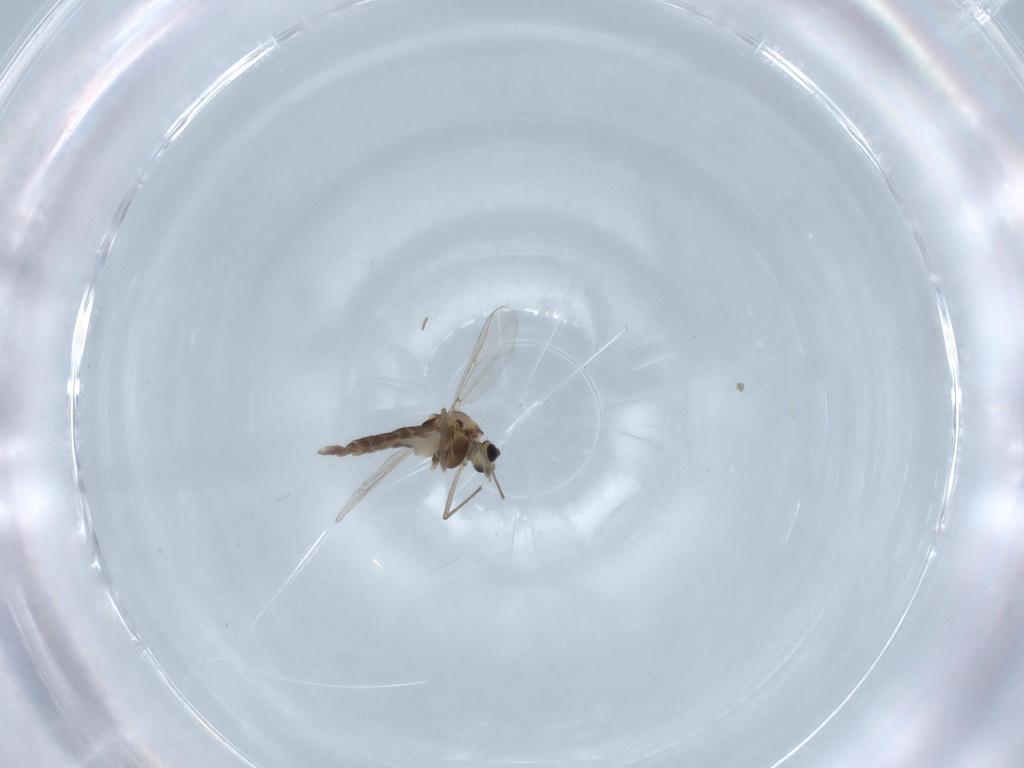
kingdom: Animalia
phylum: Arthropoda
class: Insecta
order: Diptera
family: Chironomidae
